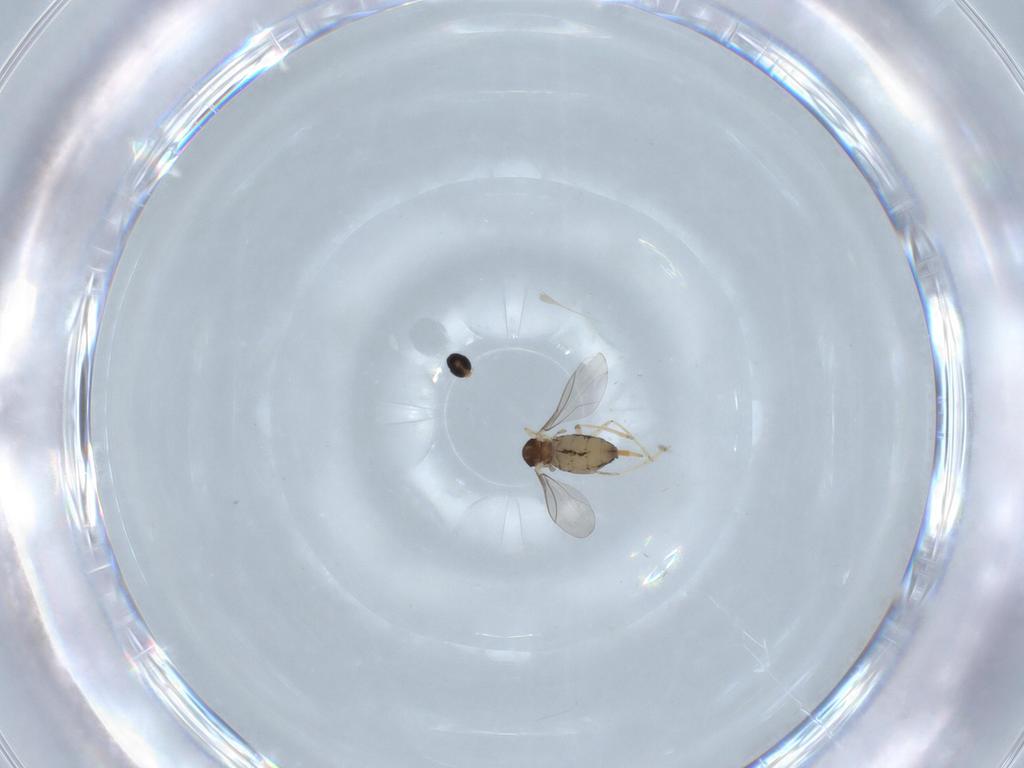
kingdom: Animalia
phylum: Arthropoda
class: Insecta
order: Diptera
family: Cecidomyiidae
